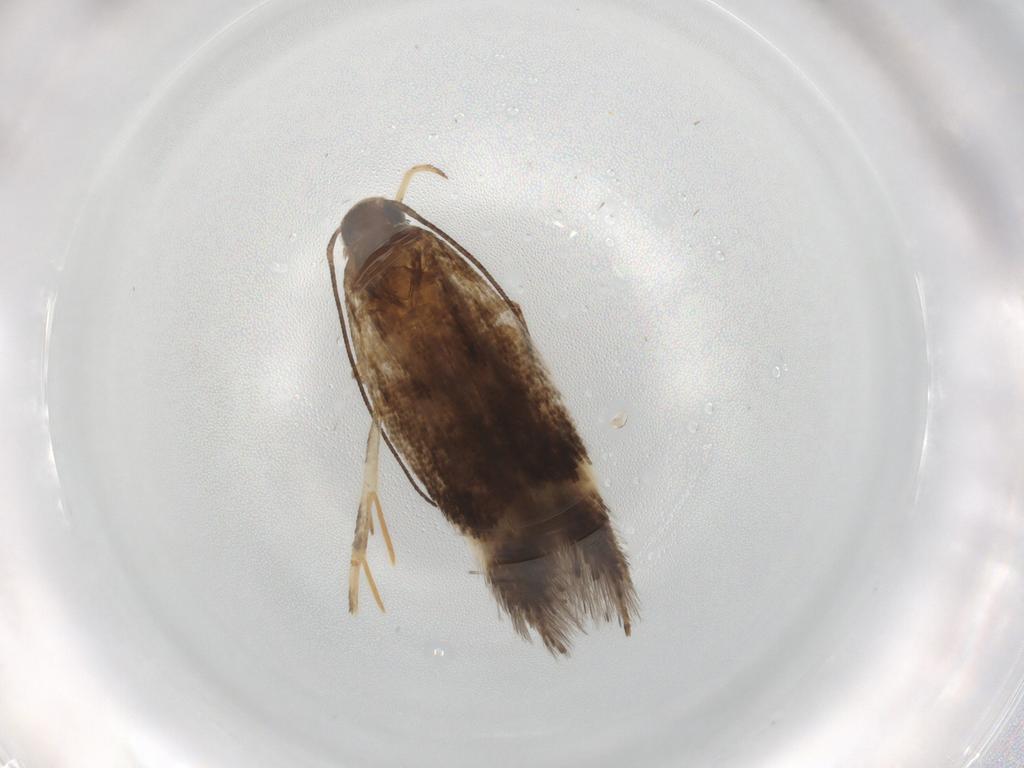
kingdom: Animalia
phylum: Arthropoda
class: Insecta
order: Lepidoptera
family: Gelechiidae
